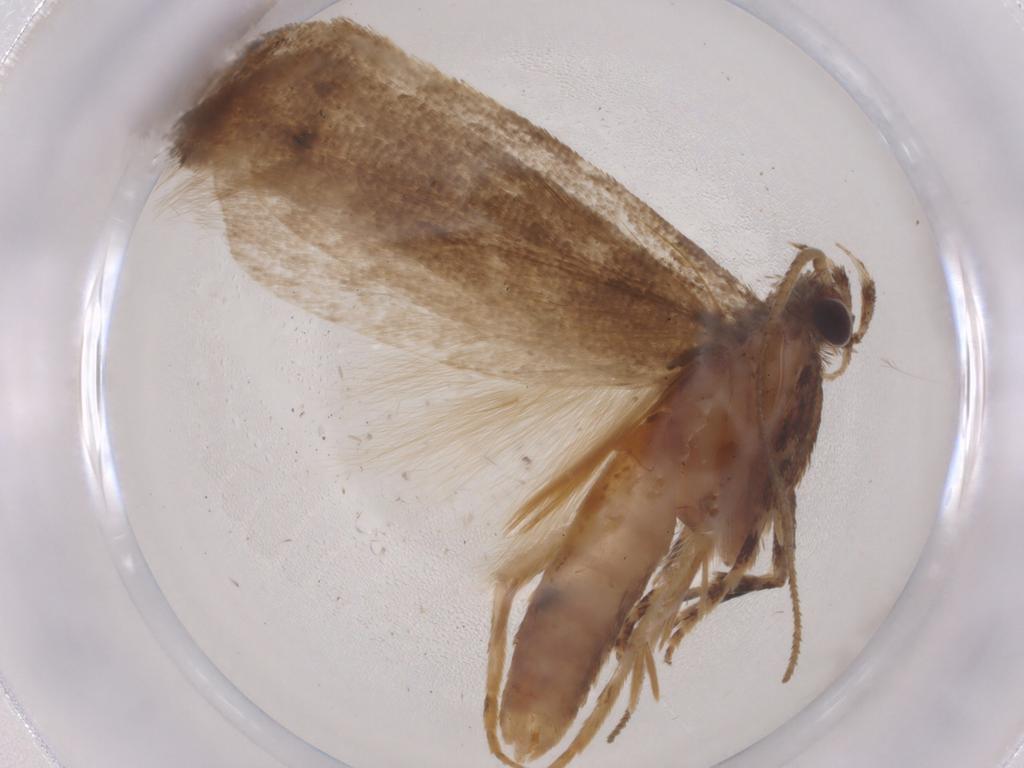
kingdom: Animalia
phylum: Arthropoda
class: Insecta
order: Lepidoptera
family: Gelechiidae
